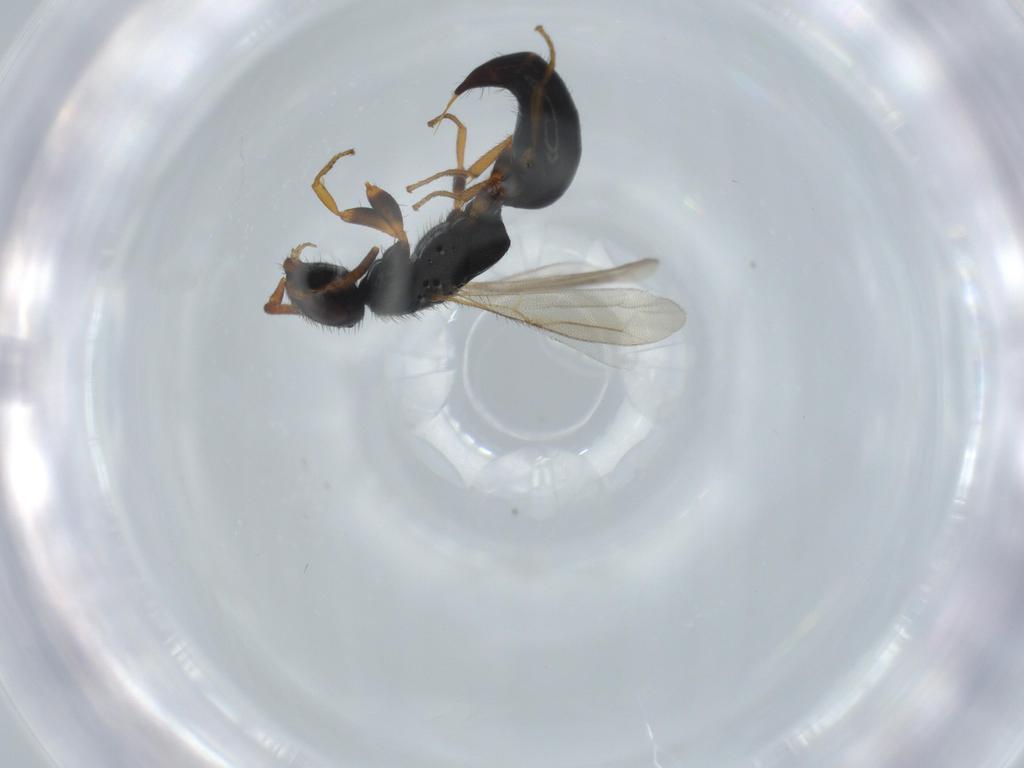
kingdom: Animalia
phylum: Arthropoda
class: Insecta
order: Hymenoptera
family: Bethylidae
